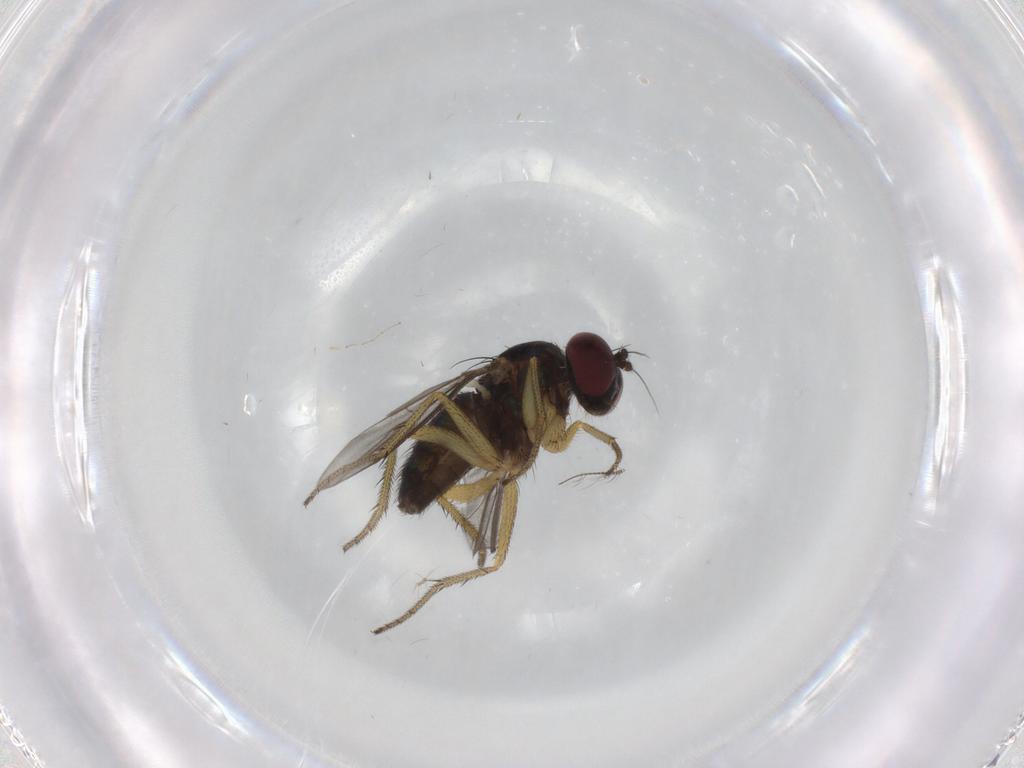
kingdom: Animalia
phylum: Arthropoda
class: Insecta
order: Diptera
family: Dolichopodidae
